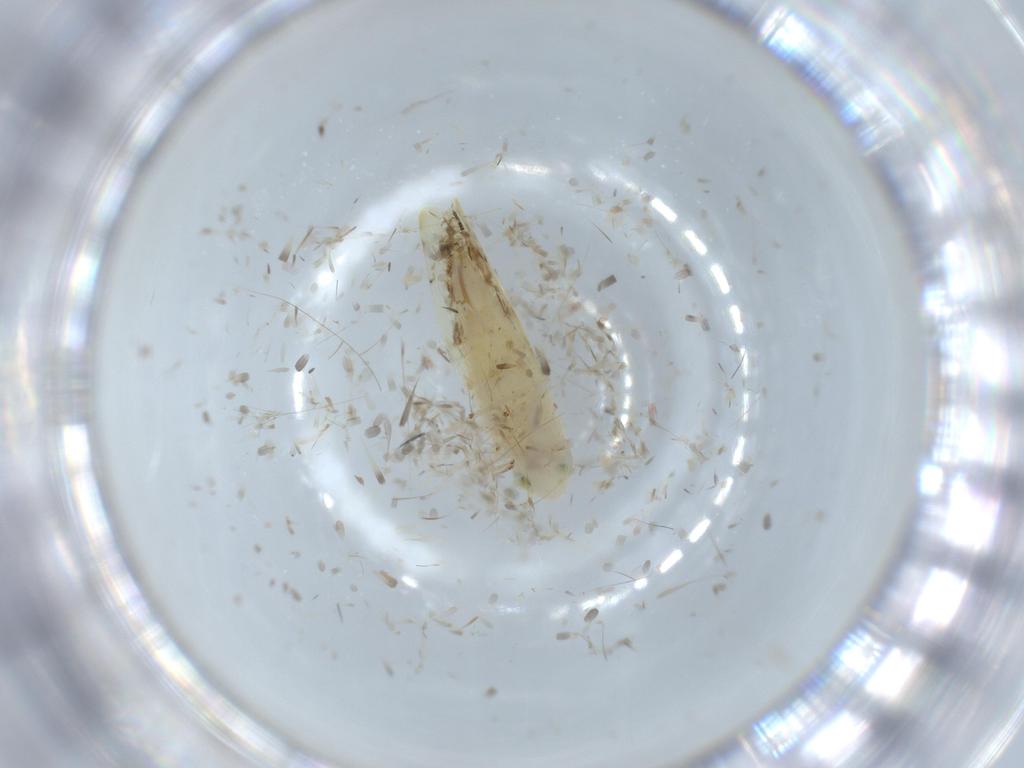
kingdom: Animalia
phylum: Arthropoda
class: Insecta
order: Hemiptera
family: Cicadellidae
